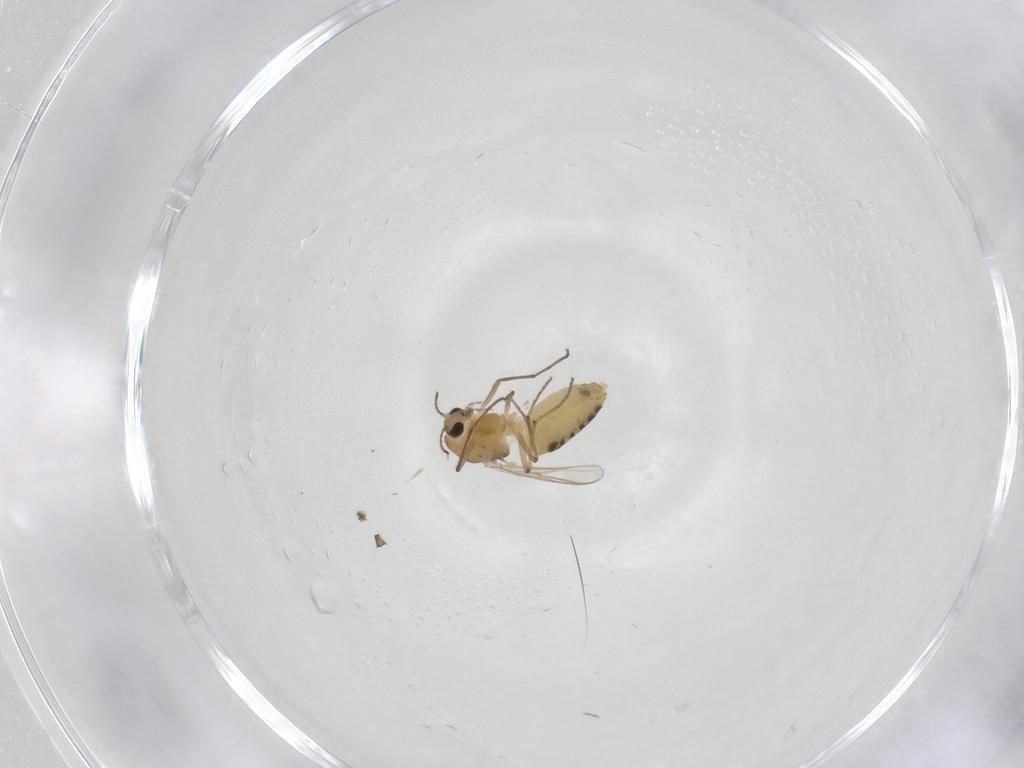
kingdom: Animalia
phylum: Arthropoda
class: Insecta
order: Diptera
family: Chironomidae
